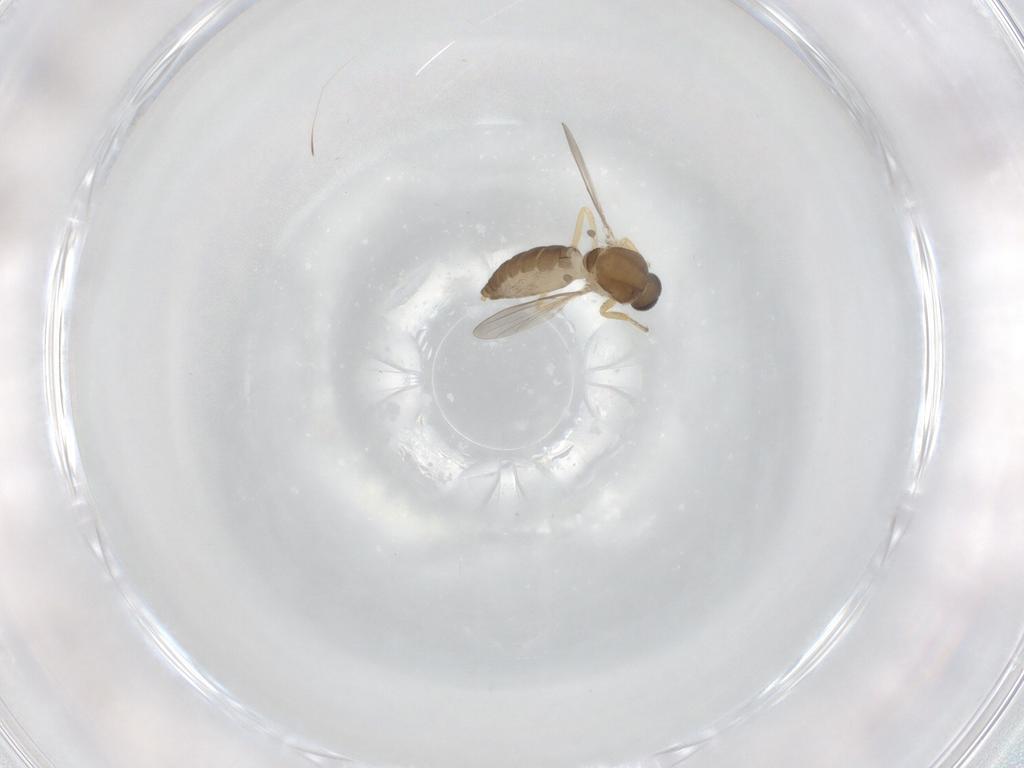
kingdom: Animalia
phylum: Arthropoda
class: Insecta
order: Diptera
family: Ceratopogonidae
